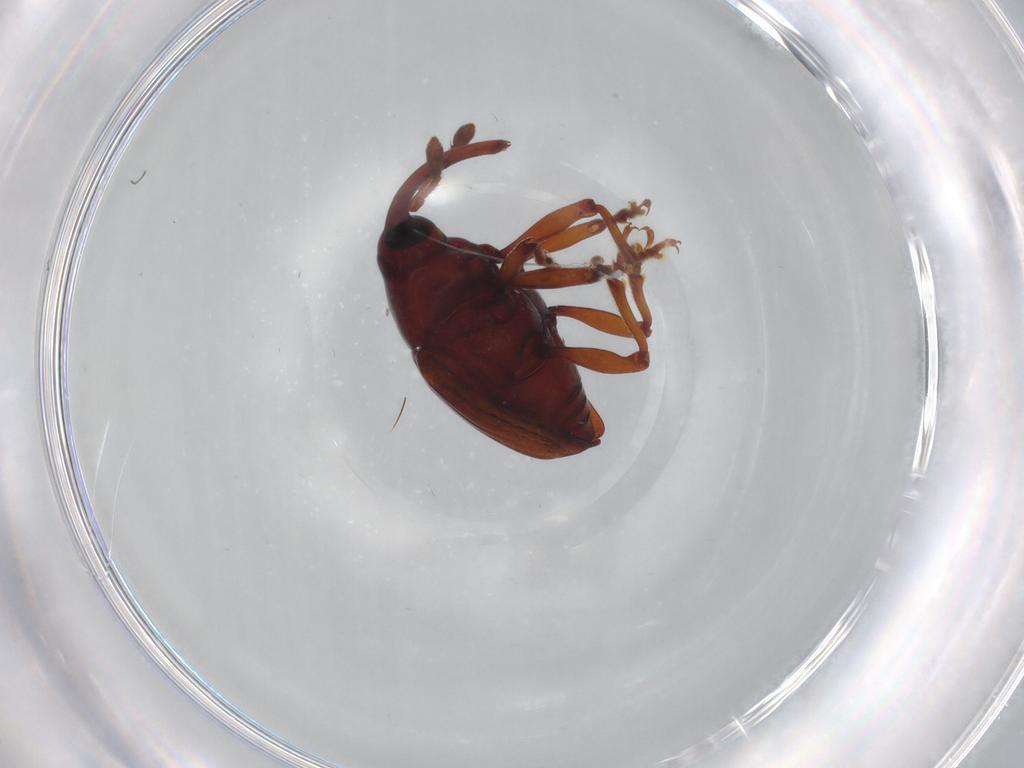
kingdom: Animalia
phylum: Arthropoda
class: Insecta
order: Coleoptera
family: Curculionidae
